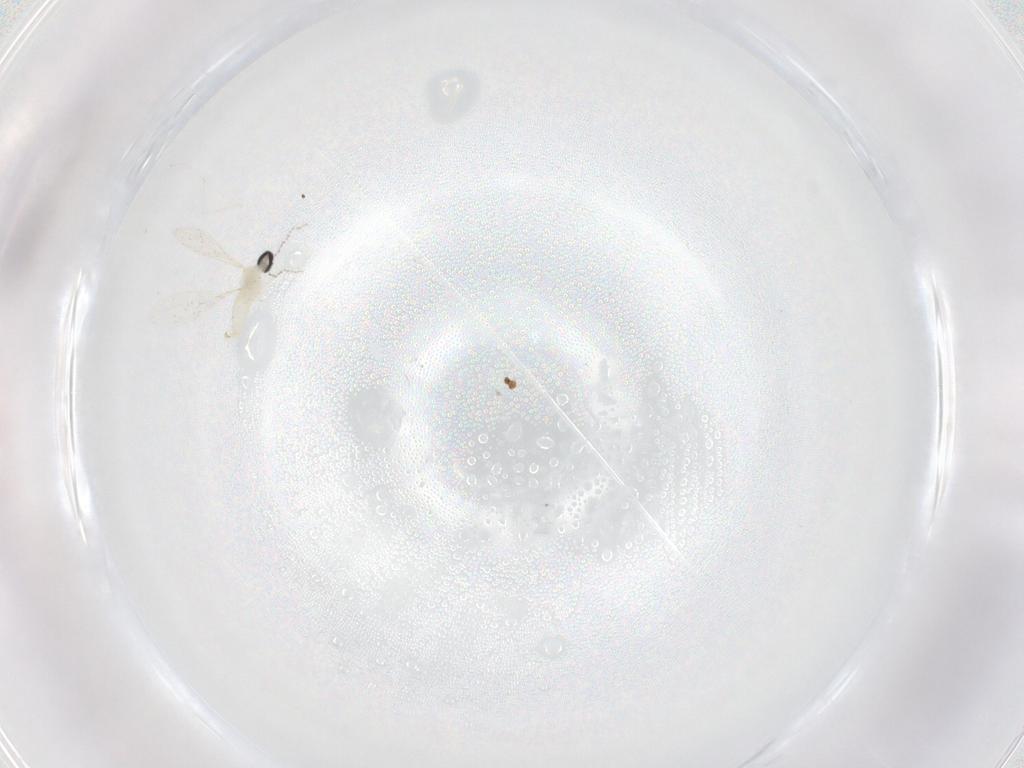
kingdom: Animalia
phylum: Arthropoda
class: Insecta
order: Diptera
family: Cecidomyiidae
